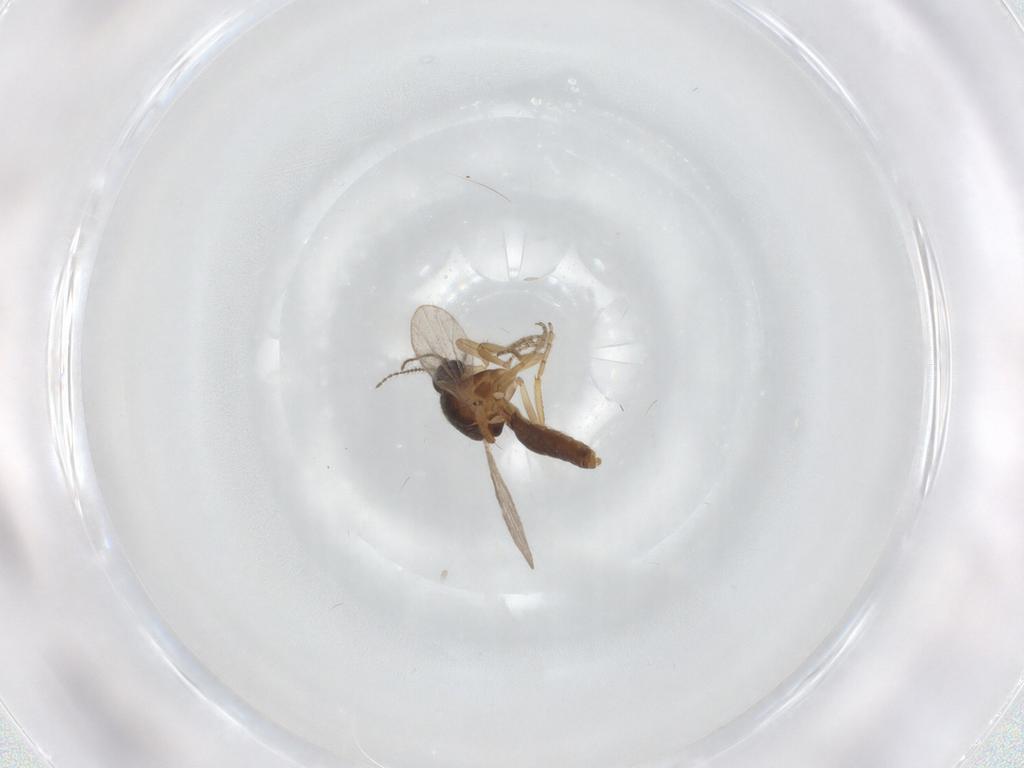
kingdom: Animalia
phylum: Arthropoda
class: Insecta
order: Diptera
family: Ceratopogonidae
